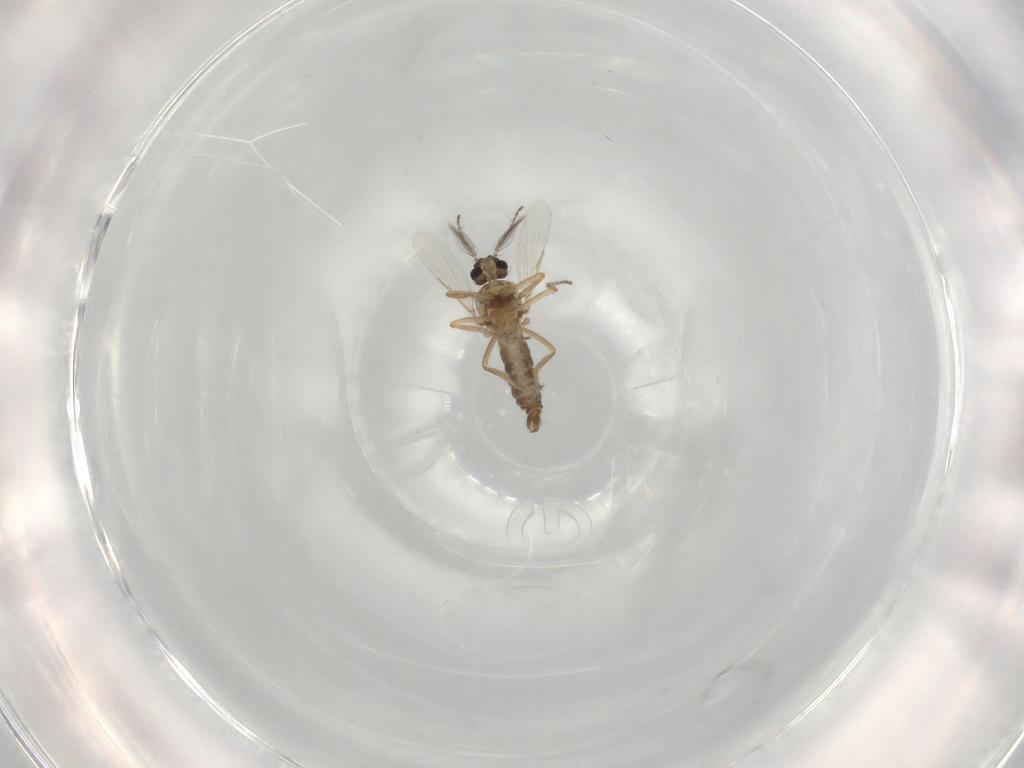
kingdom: Animalia
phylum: Arthropoda
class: Insecta
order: Diptera
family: Ceratopogonidae
